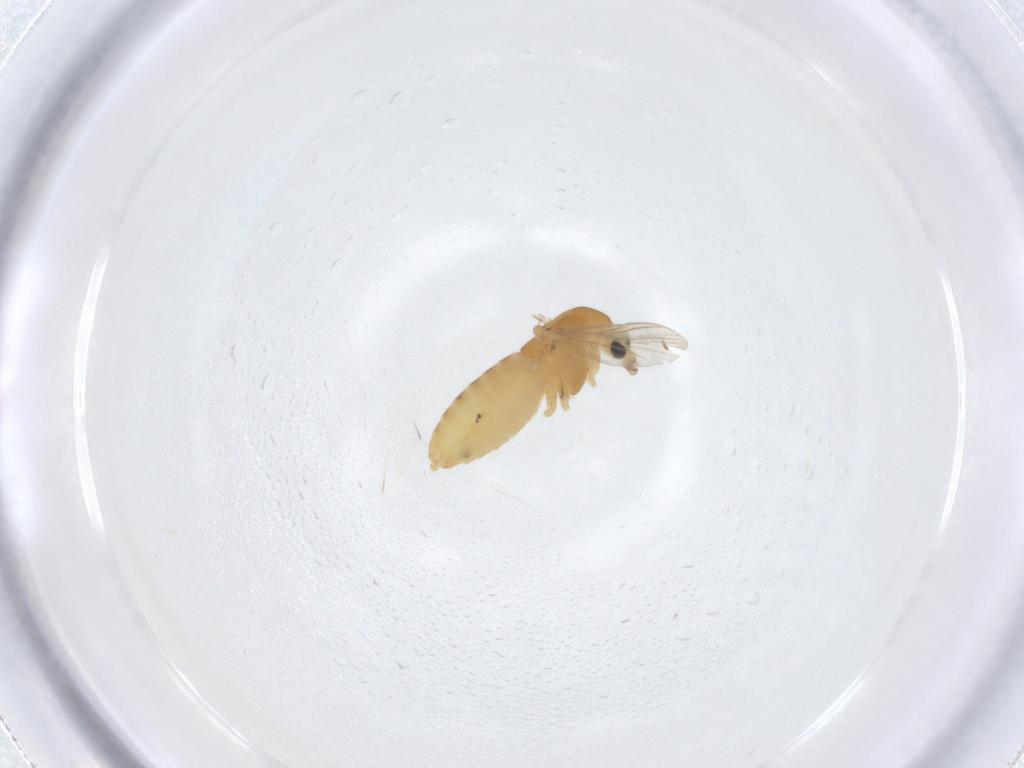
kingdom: Animalia
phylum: Arthropoda
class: Insecta
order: Diptera
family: Chironomidae
